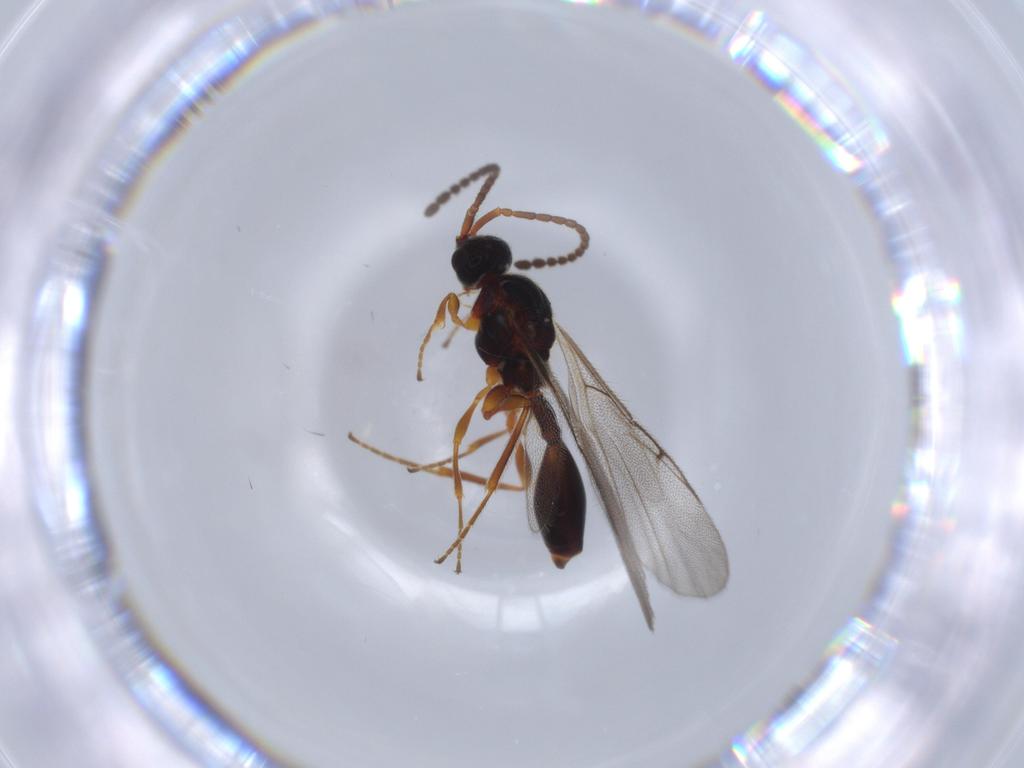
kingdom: Animalia
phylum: Arthropoda
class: Insecta
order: Hymenoptera
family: Diapriidae
